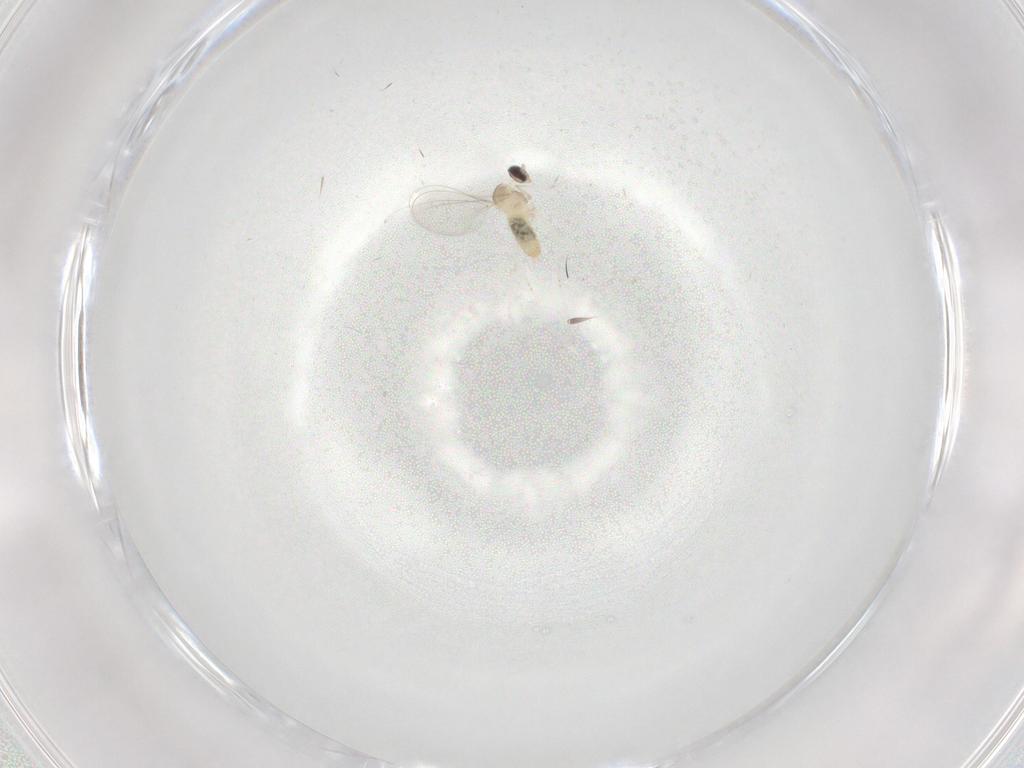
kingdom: Animalia
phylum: Arthropoda
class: Insecta
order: Diptera
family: Cecidomyiidae
